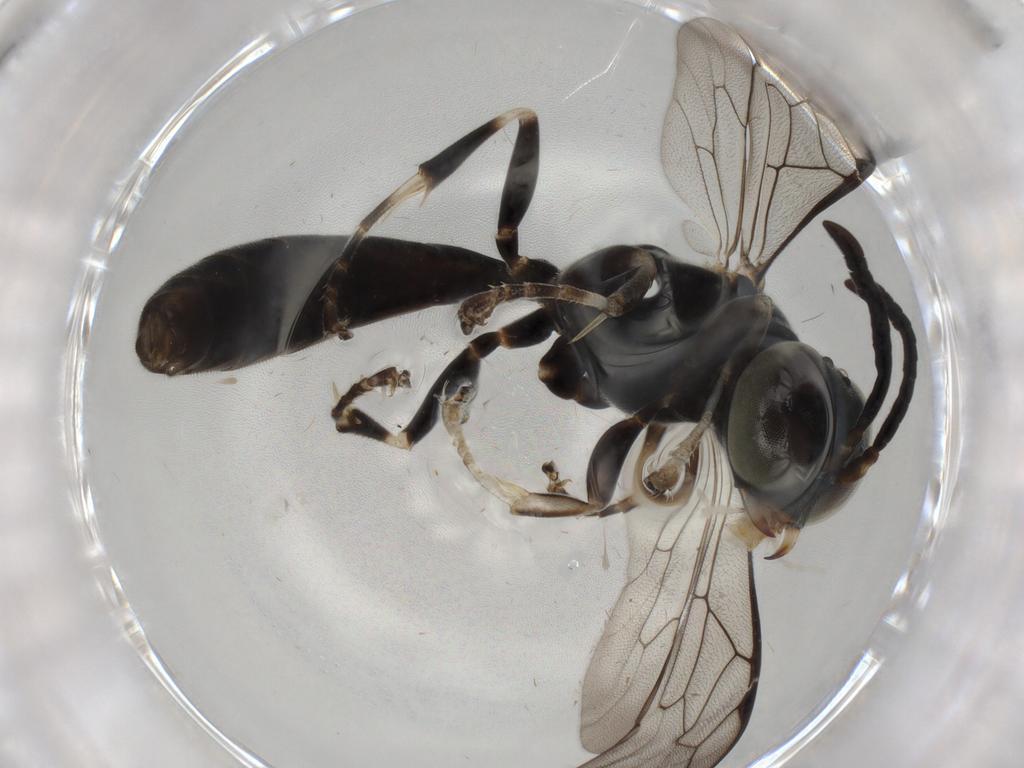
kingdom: Animalia
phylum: Arthropoda
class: Insecta
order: Hymenoptera
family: Crabronidae
